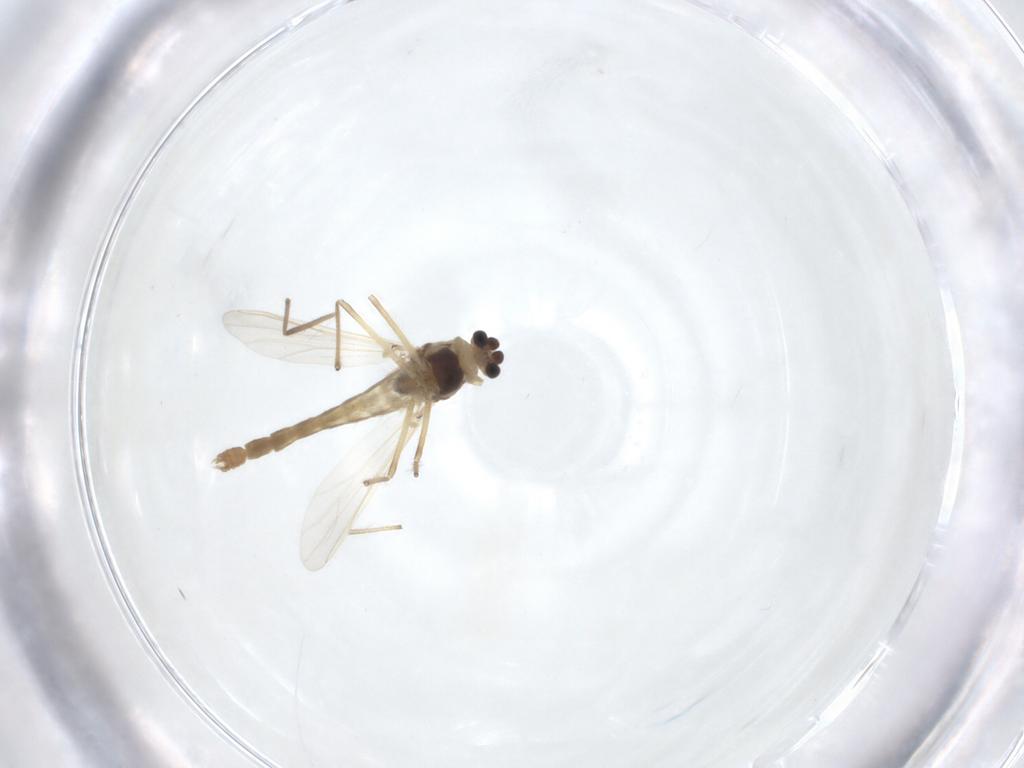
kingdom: Animalia
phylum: Arthropoda
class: Insecta
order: Diptera
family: Chironomidae
